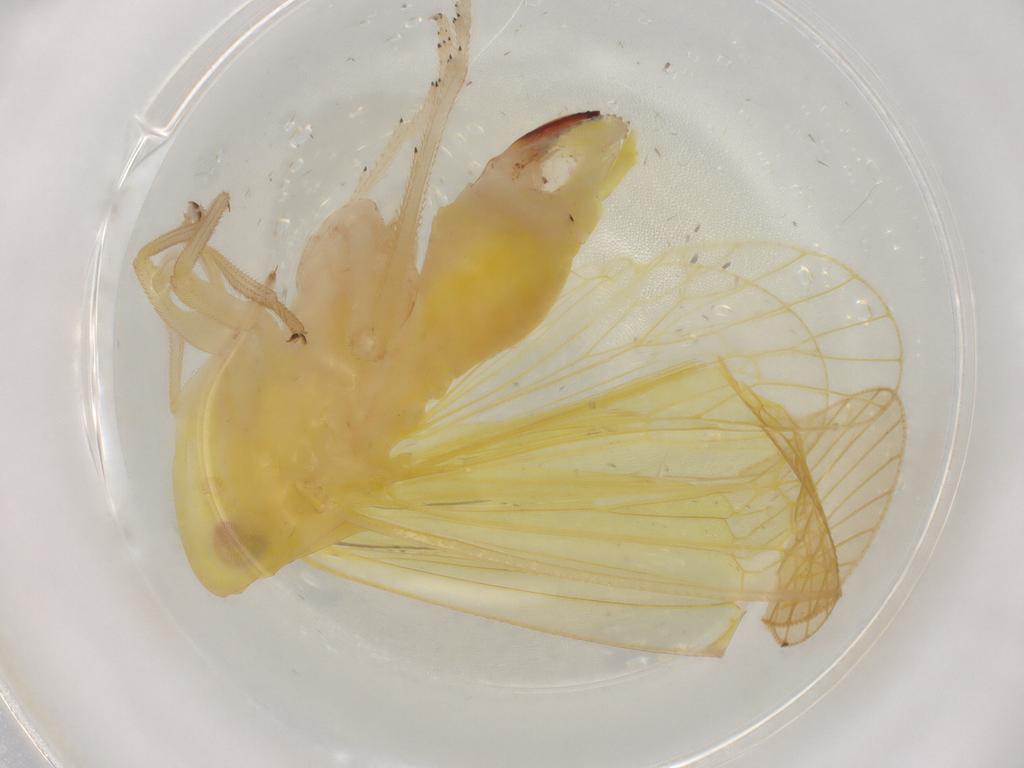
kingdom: Animalia
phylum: Arthropoda
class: Insecta
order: Hemiptera
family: Tropiduchidae
